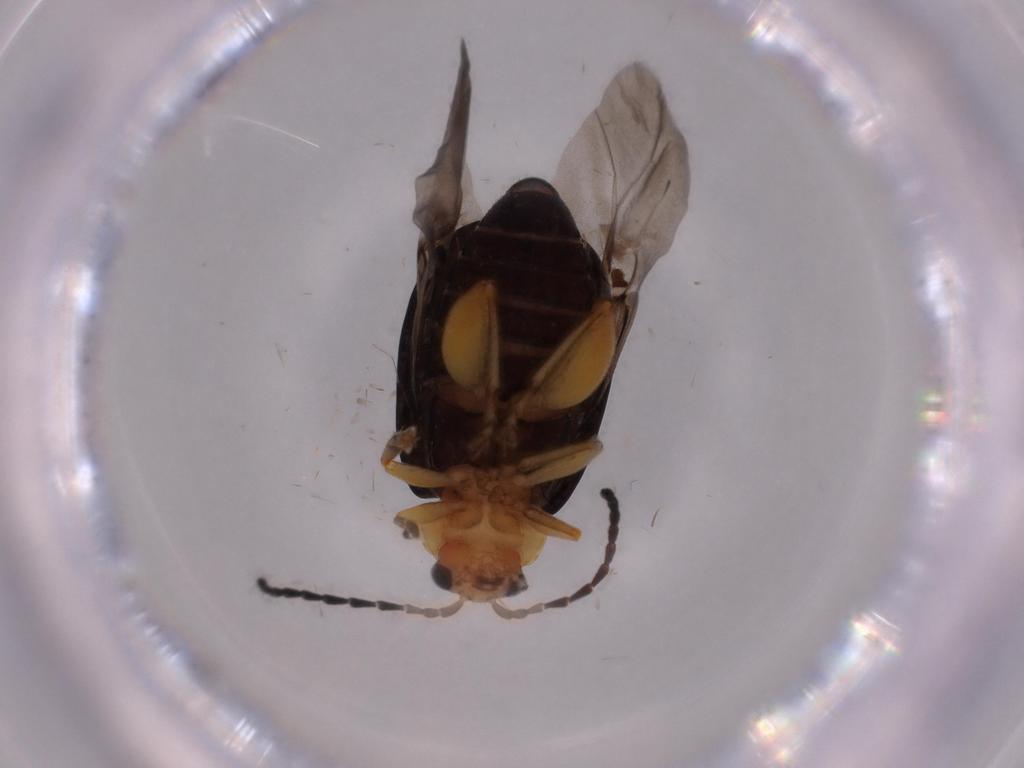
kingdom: Animalia
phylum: Arthropoda
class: Insecta
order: Coleoptera
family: Chrysomelidae
